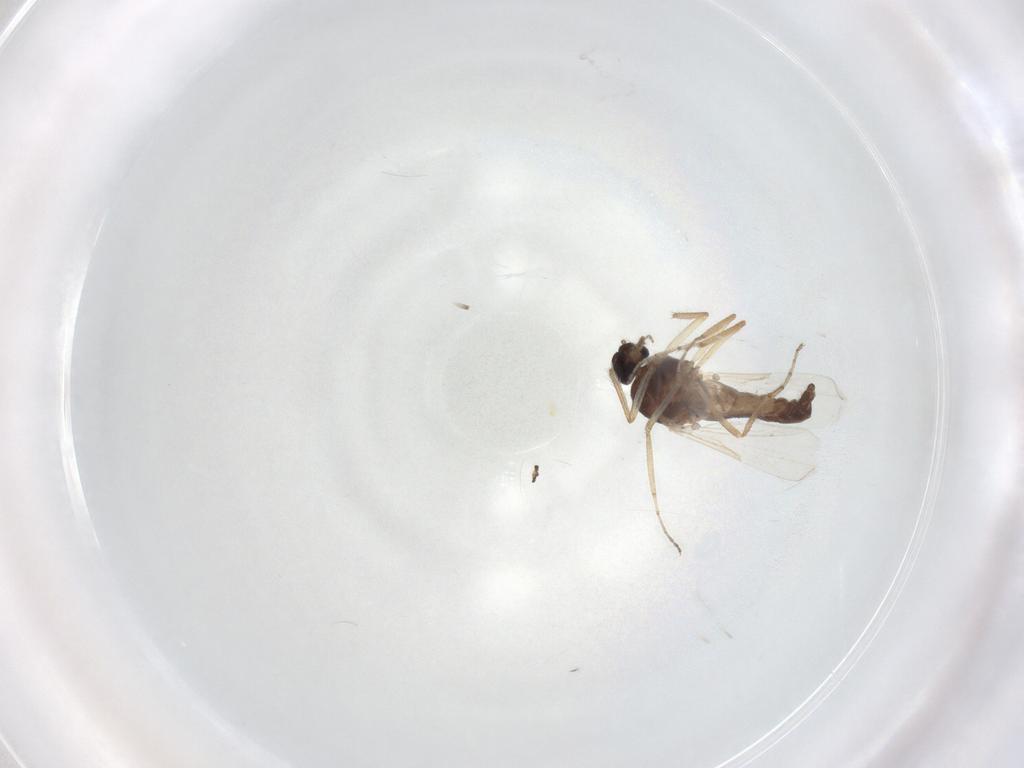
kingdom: Animalia
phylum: Arthropoda
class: Insecta
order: Diptera
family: Ceratopogonidae
